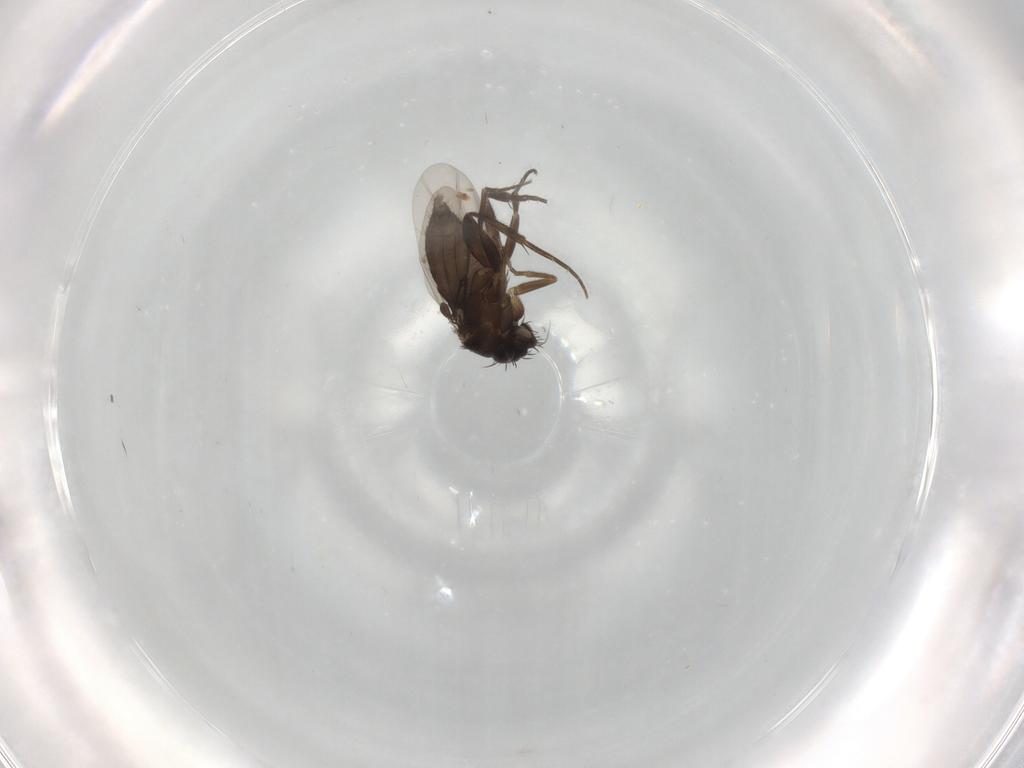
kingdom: Animalia
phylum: Arthropoda
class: Insecta
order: Diptera
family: Phoridae
